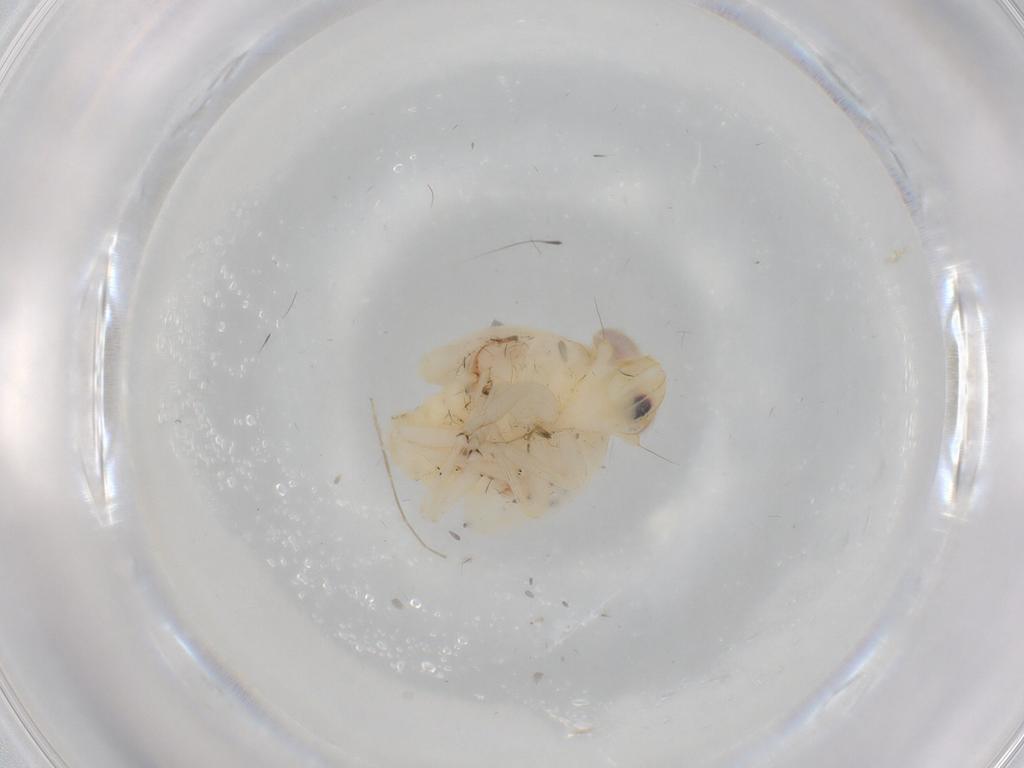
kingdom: Animalia
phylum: Arthropoda
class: Insecta
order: Hemiptera
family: Nogodinidae
